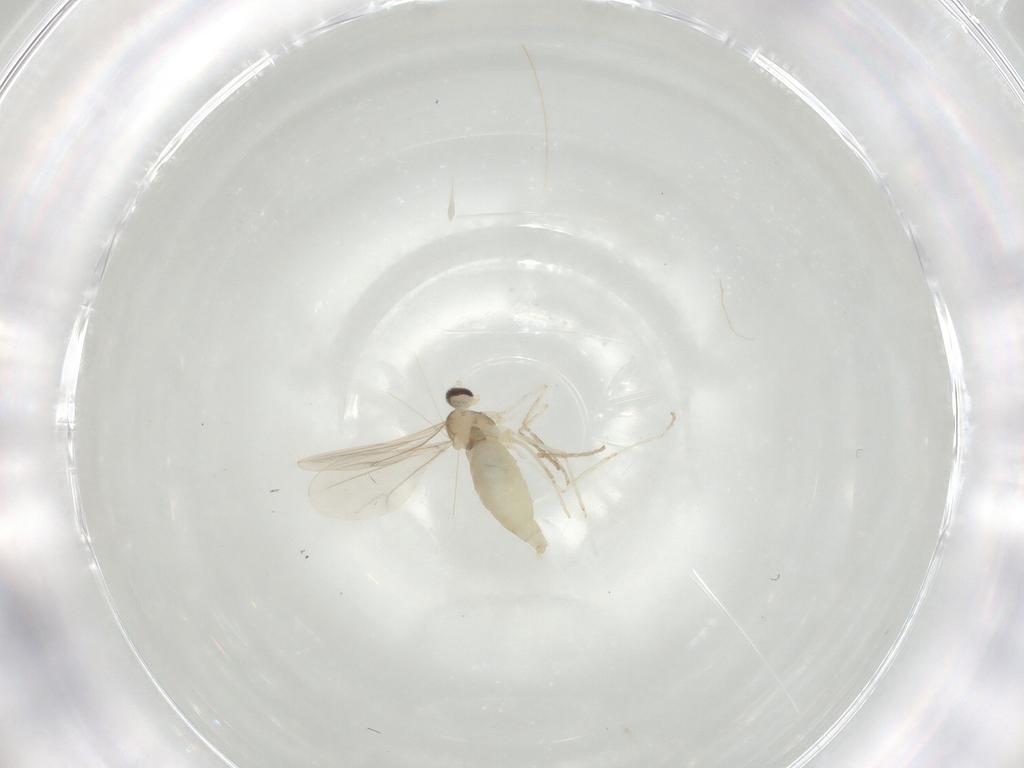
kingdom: Animalia
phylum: Arthropoda
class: Insecta
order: Diptera
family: Cecidomyiidae
